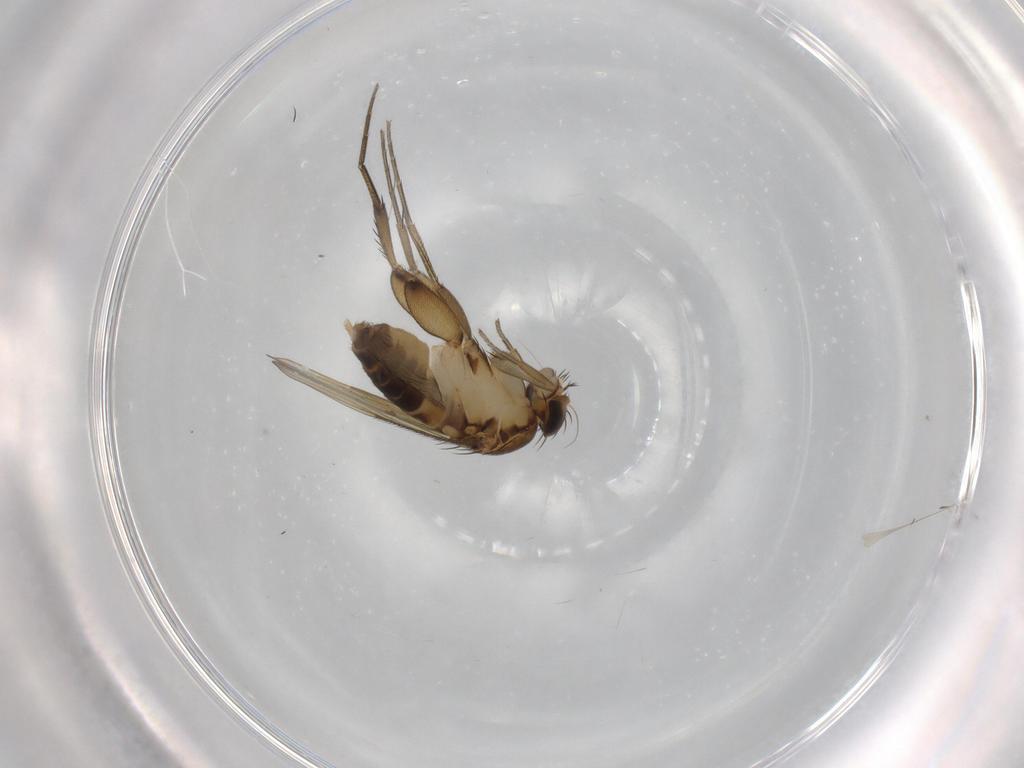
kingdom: Animalia
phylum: Arthropoda
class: Insecta
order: Diptera
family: Phoridae
